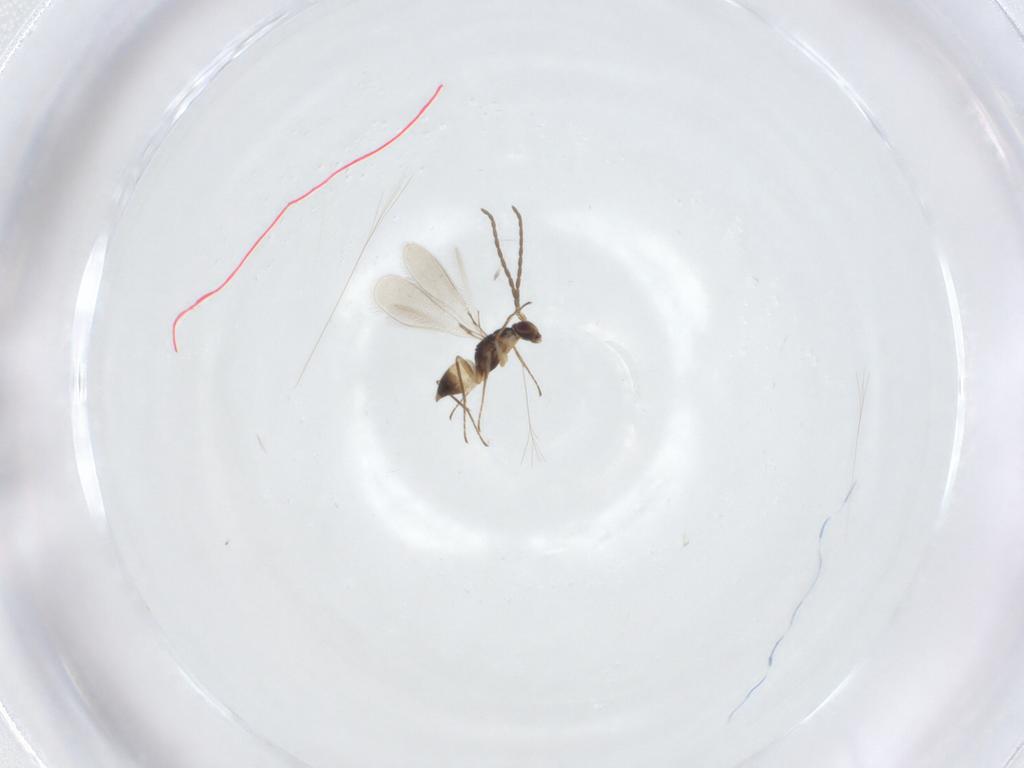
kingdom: Animalia
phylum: Arthropoda
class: Insecta
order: Hymenoptera
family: Mymaridae
